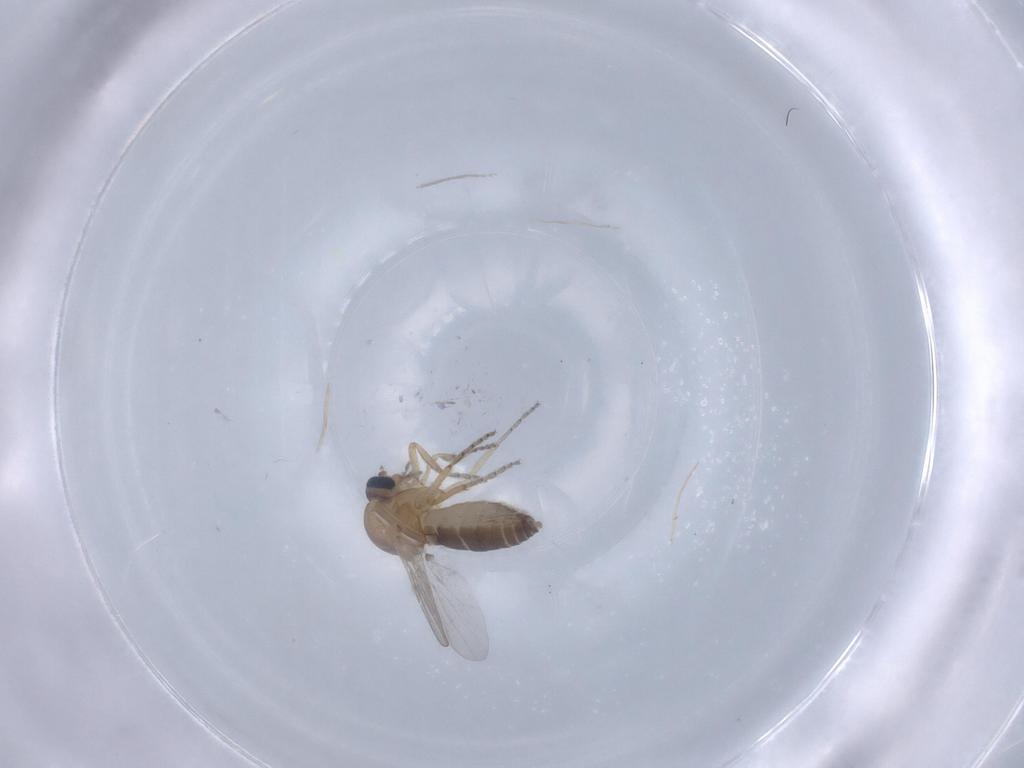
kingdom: Animalia
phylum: Arthropoda
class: Insecta
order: Diptera
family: Ceratopogonidae
